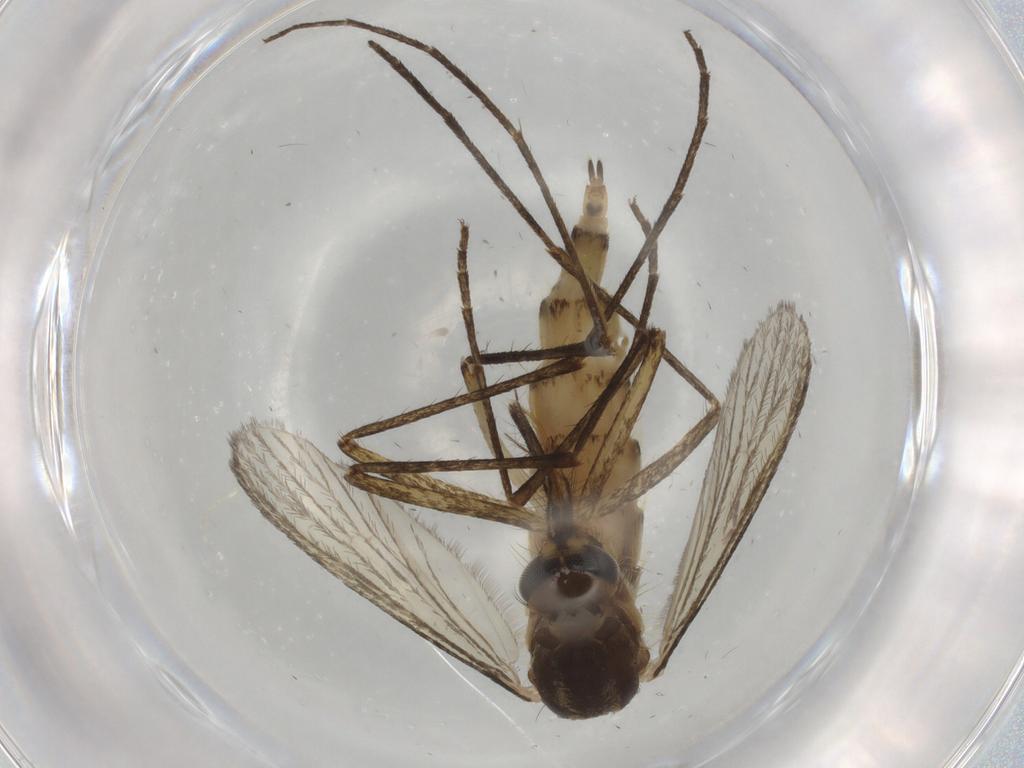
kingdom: Animalia
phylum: Arthropoda
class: Insecta
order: Diptera
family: Culicidae
